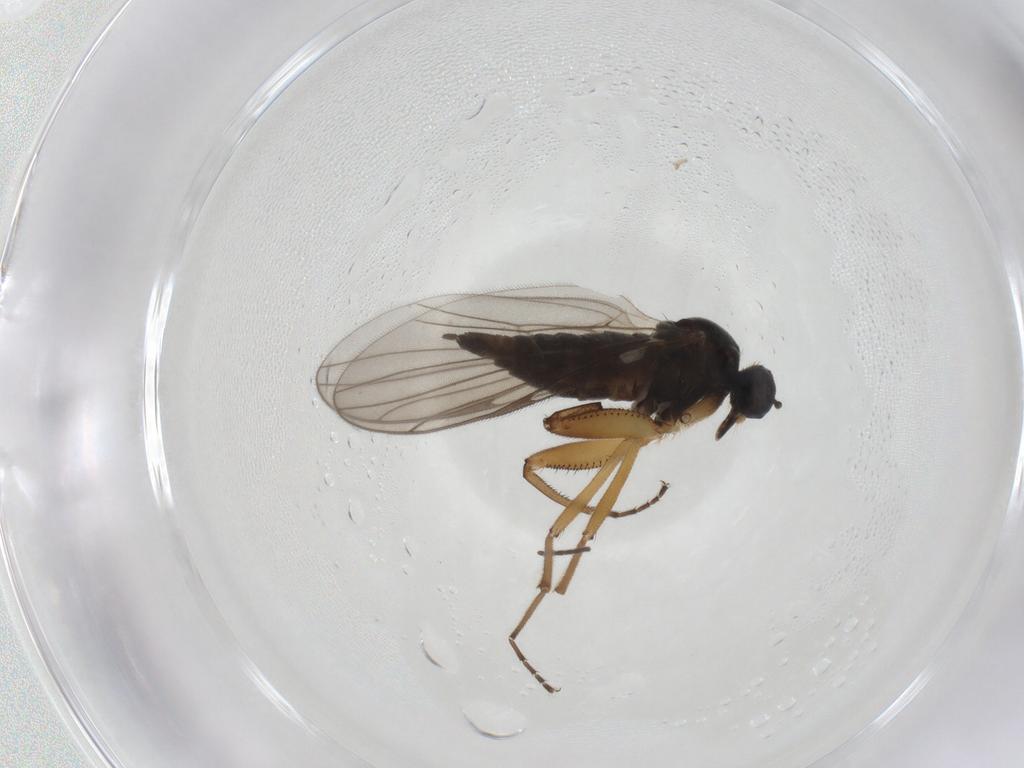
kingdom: Animalia
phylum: Arthropoda
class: Insecta
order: Diptera
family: Hybotidae
